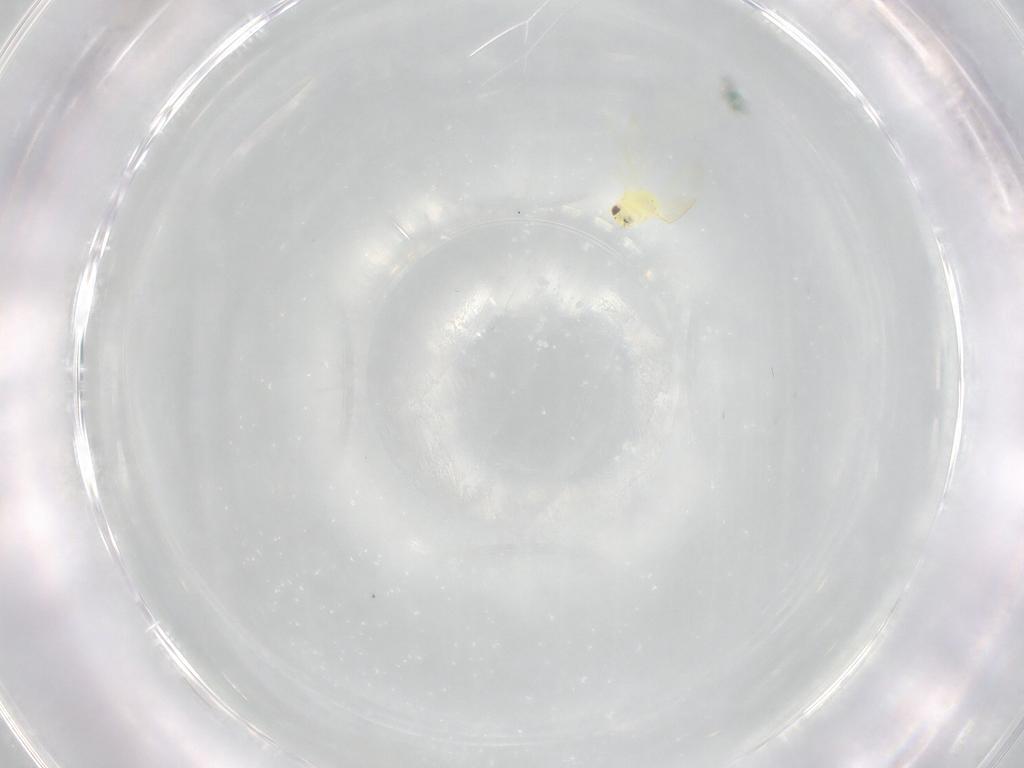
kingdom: Animalia
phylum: Arthropoda
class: Insecta
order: Hemiptera
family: Aleyrodidae
